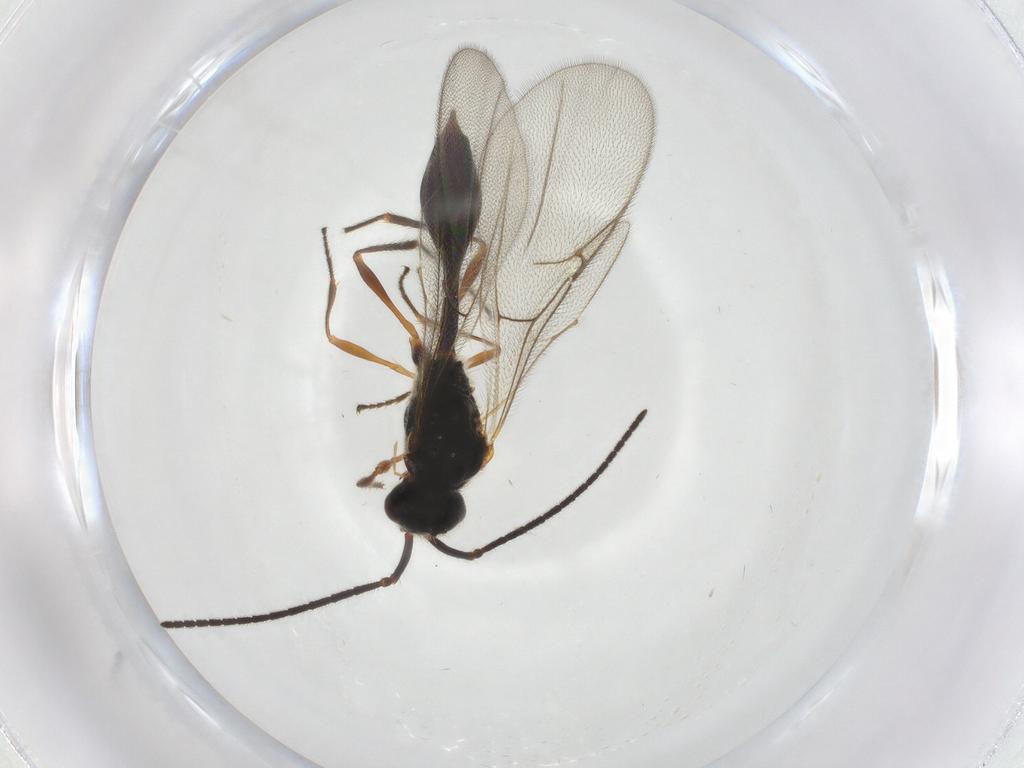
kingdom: Animalia
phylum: Arthropoda
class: Insecta
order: Hymenoptera
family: Diapriidae
